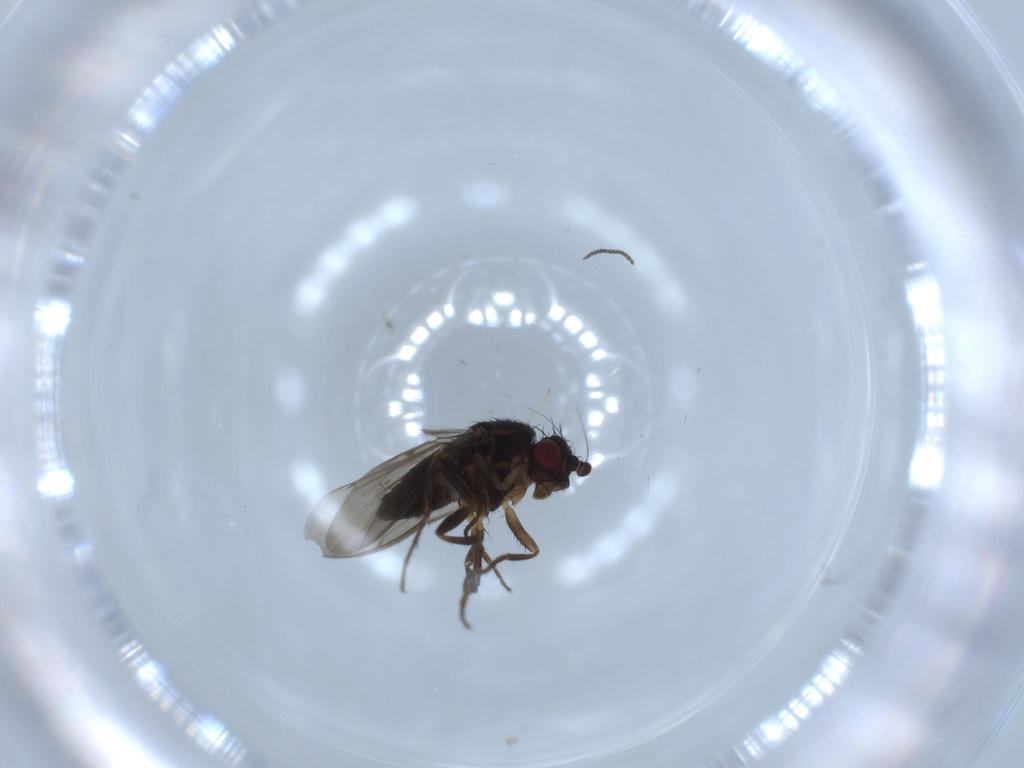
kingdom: Animalia
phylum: Arthropoda
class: Insecta
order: Diptera
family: Sphaeroceridae
